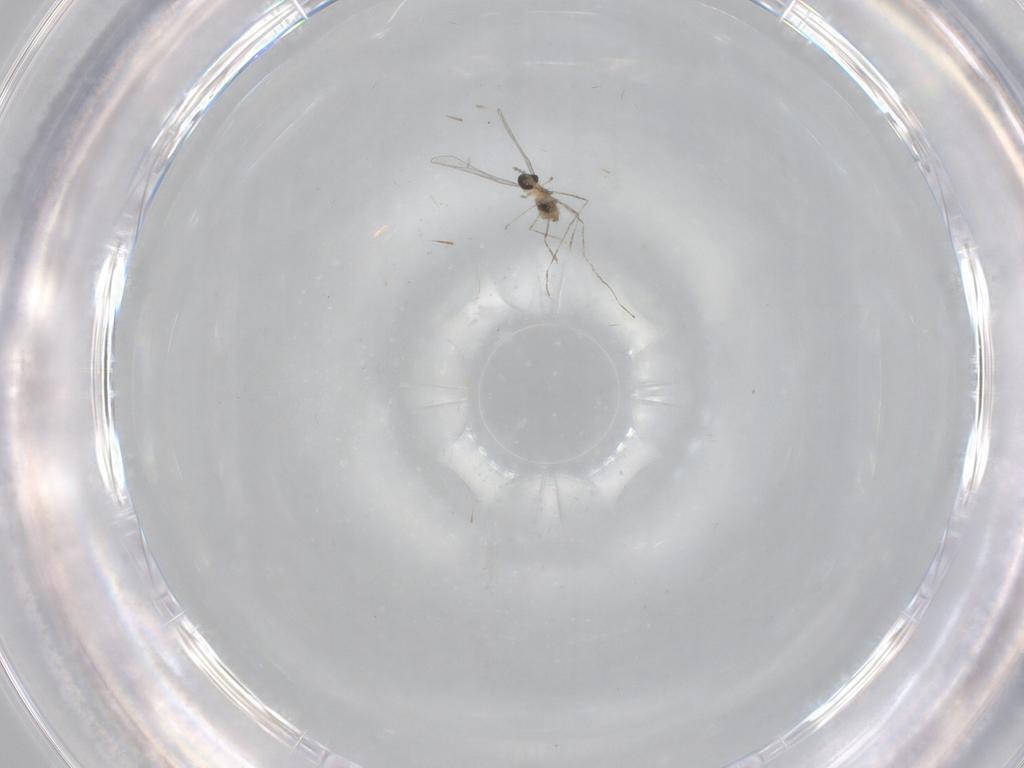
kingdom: Animalia
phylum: Arthropoda
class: Insecta
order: Diptera
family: Cecidomyiidae
